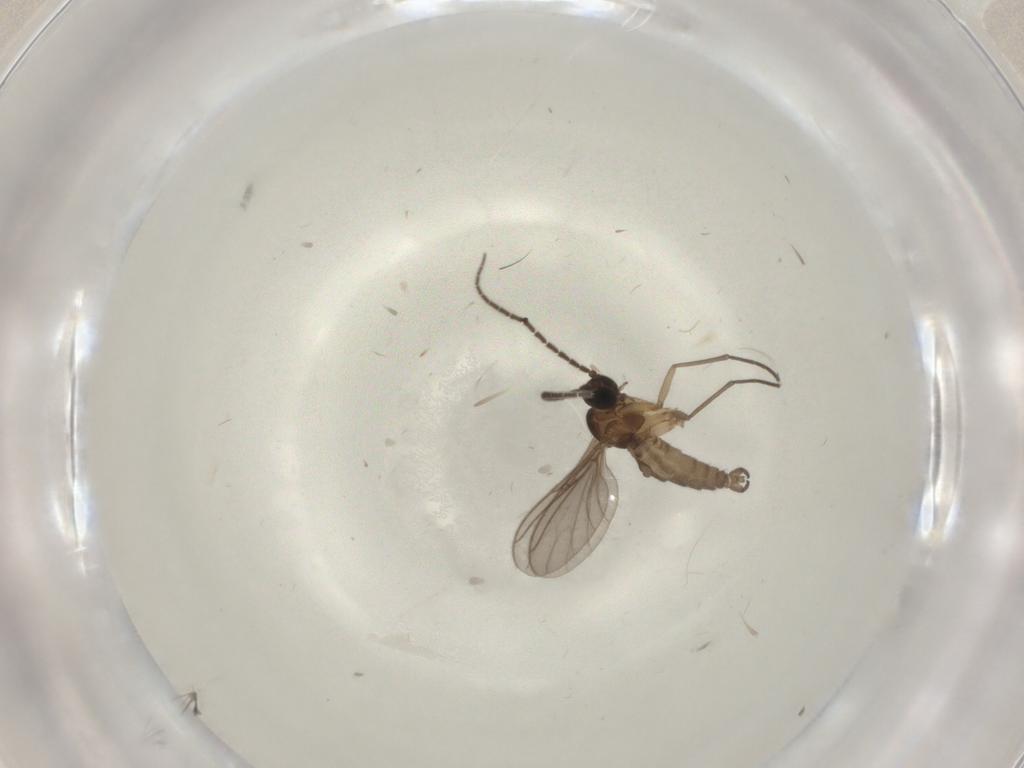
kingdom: Animalia
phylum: Arthropoda
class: Insecta
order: Diptera
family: Sciaridae
